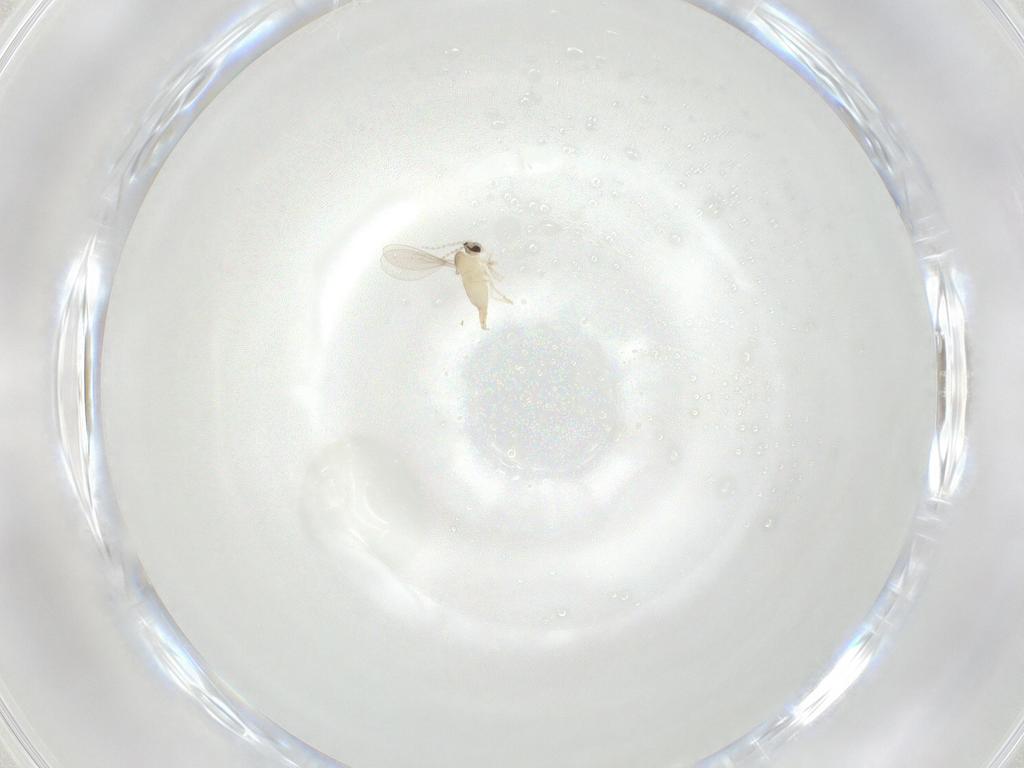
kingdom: Animalia
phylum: Arthropoda
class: Insecta
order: Diptera
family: Cecidomyiidae
